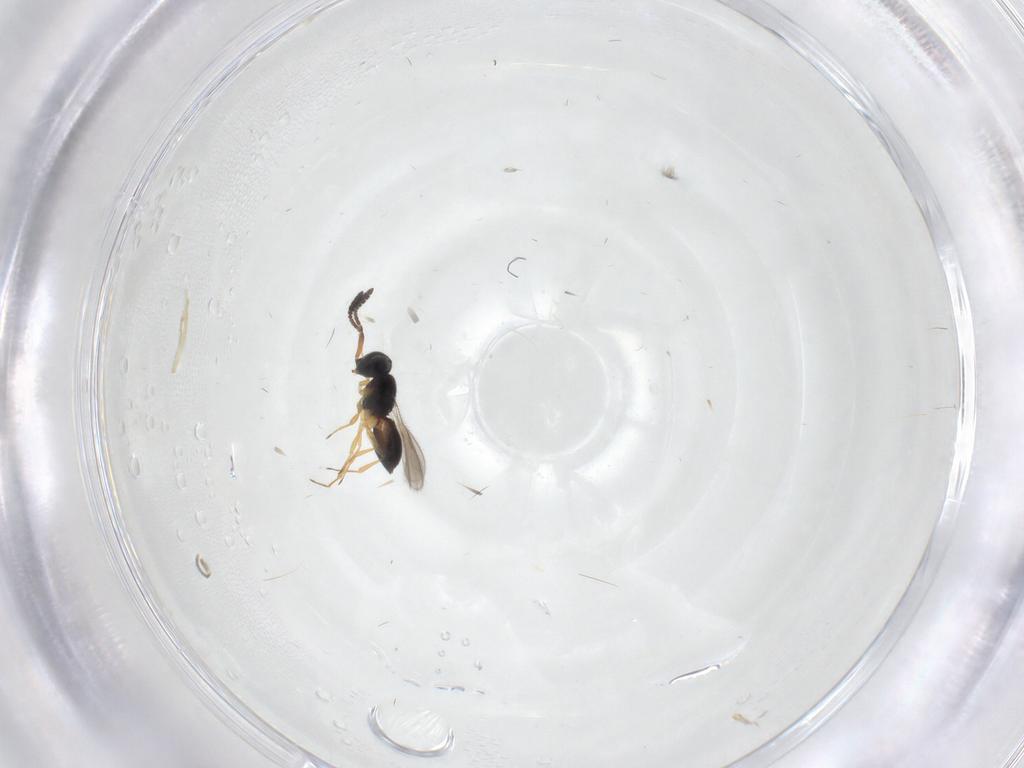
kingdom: Animalia
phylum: Arthropoda
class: Insecta
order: Hymenoptera
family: Scelionidae
